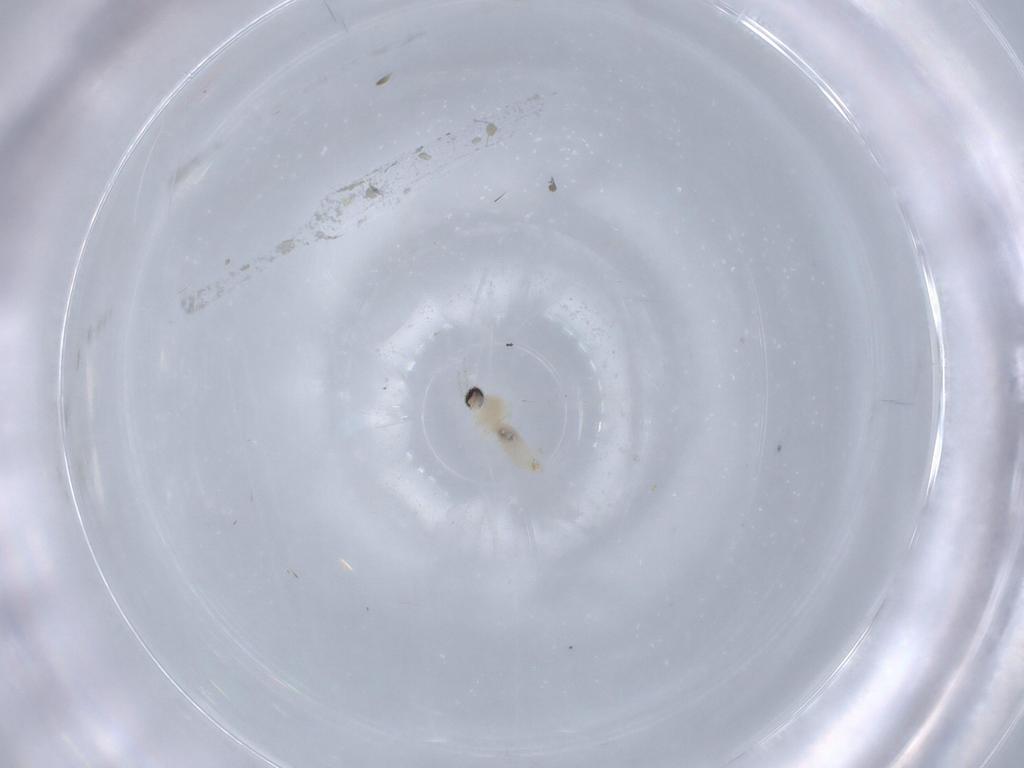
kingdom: Animalia
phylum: Arthropoda
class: Insecta
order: Diptera
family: Cecidomyiidae
